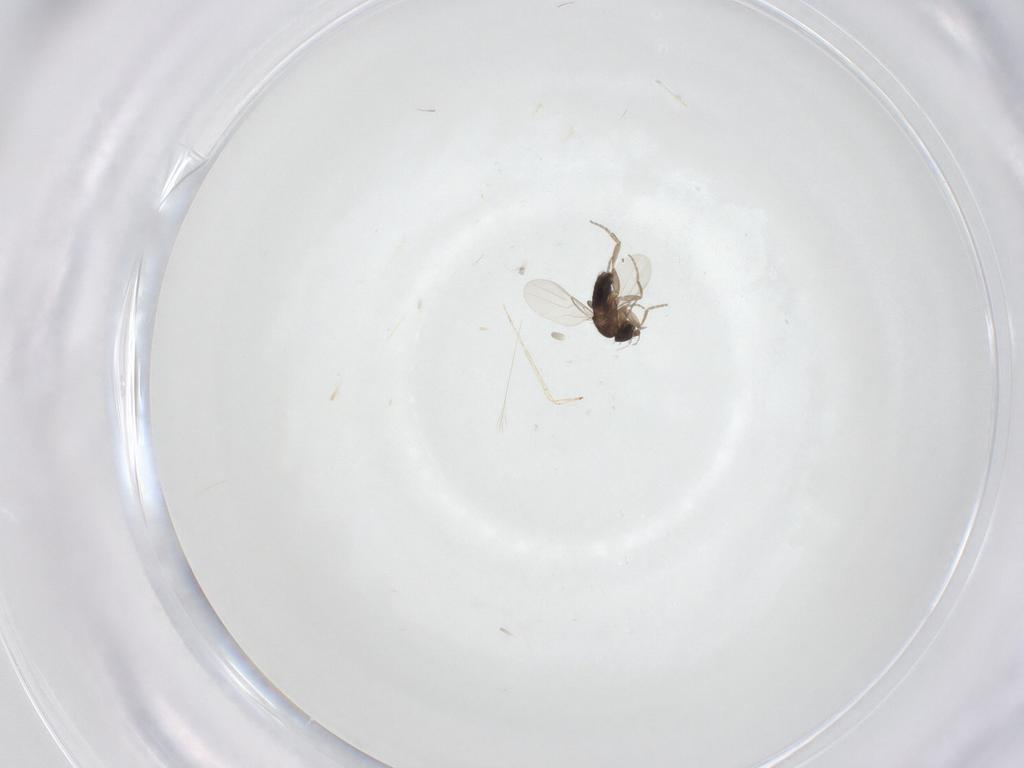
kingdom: Animalia
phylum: Arthropoda
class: Insecta
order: Diptera
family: Phoridae
